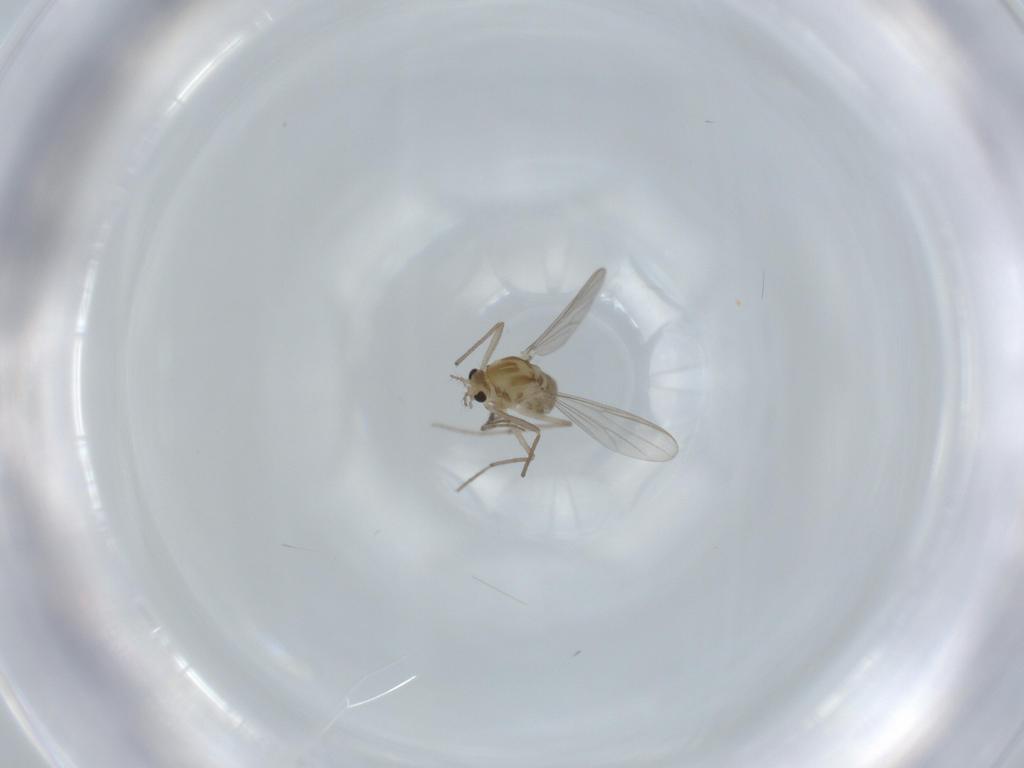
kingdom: Animalia
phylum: Arthropoda
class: Insecta
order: Diptera
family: Chironomidae
